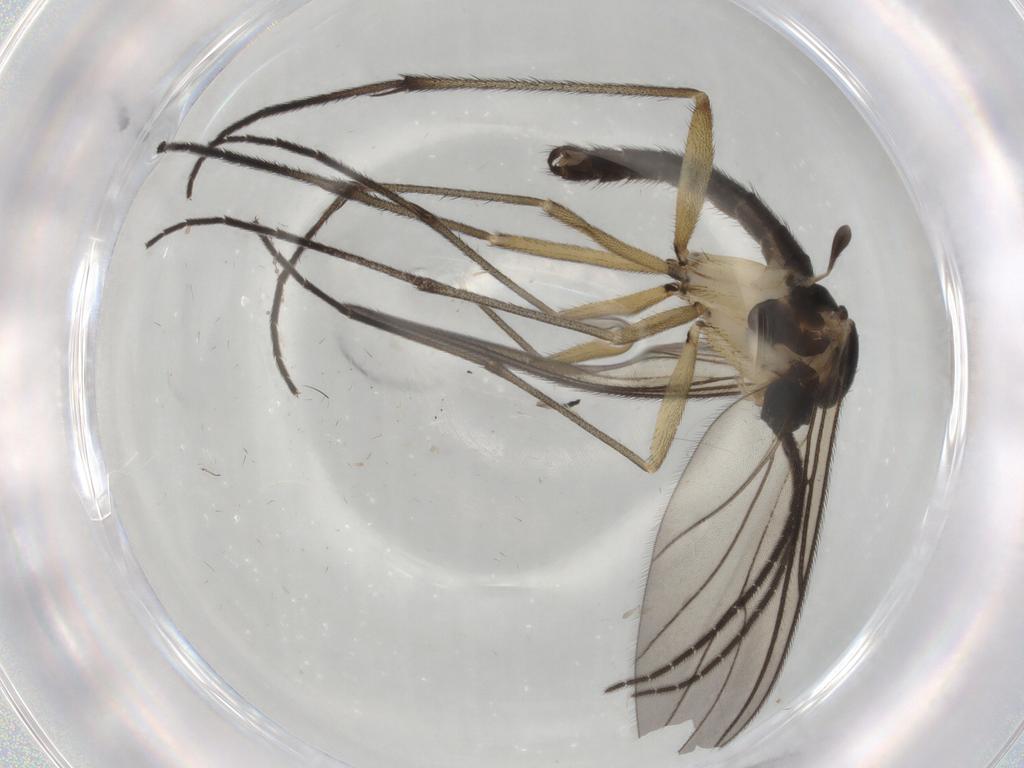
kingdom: Animalia
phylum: Arthropoda
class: Insecta
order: Diptera
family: Sciaridae
